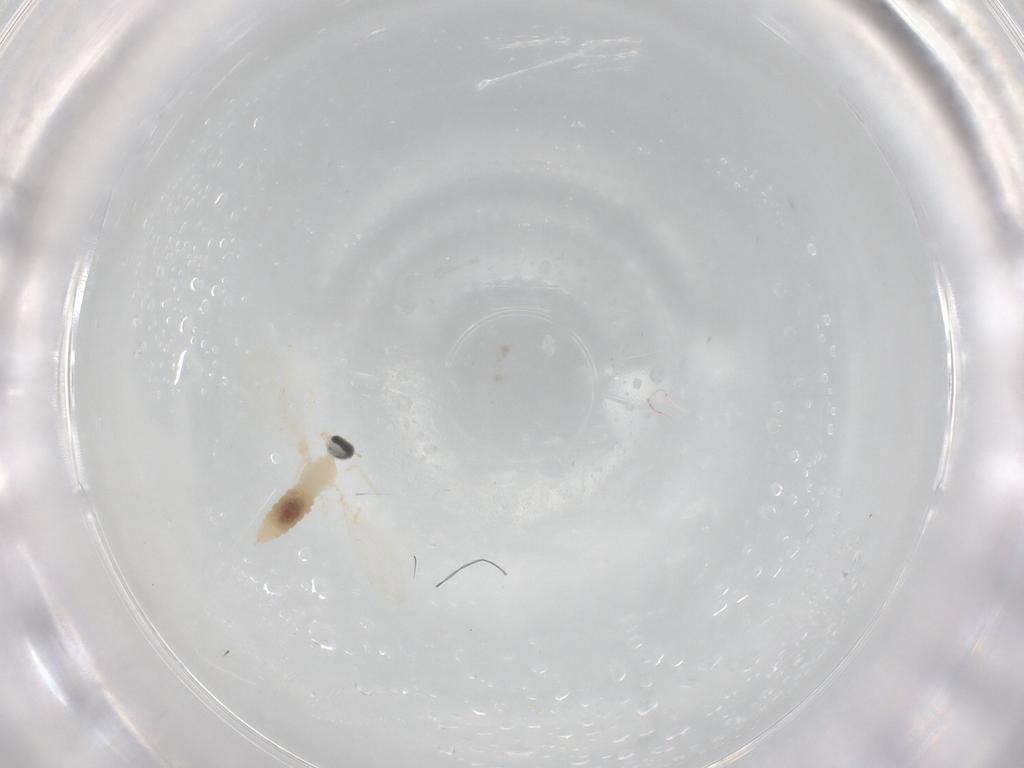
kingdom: Animalia
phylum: Arthropoda
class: Insecta
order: Diptera
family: Cecidomyiidae
